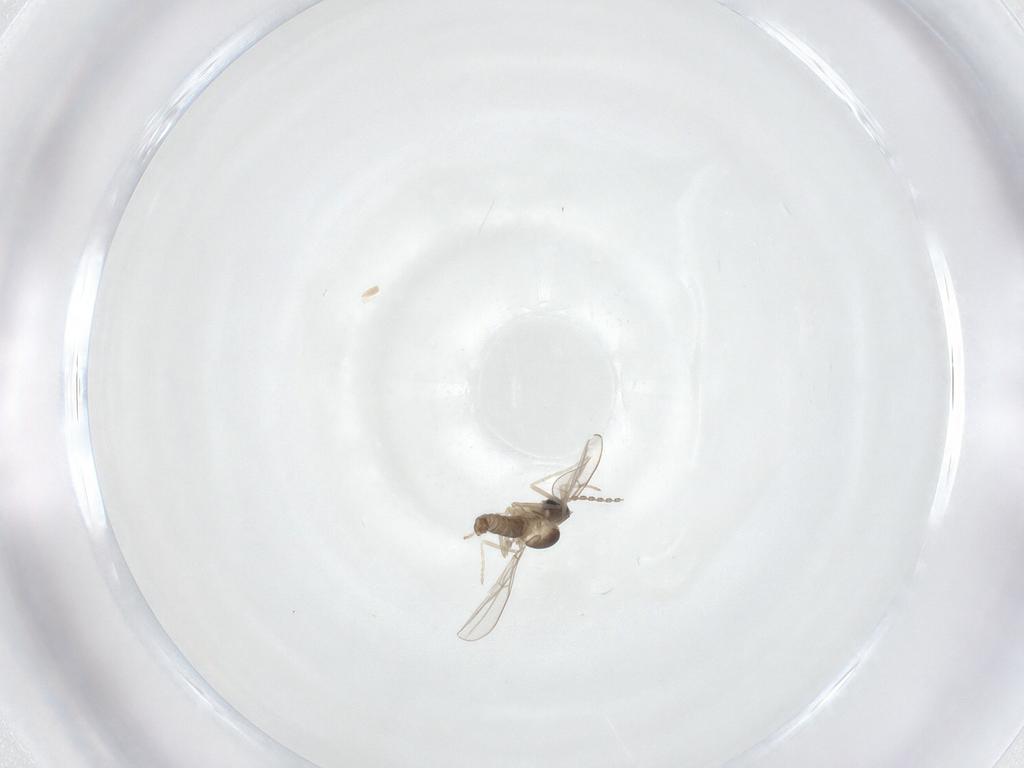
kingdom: Animalia
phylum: Arthropoda
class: Insecta
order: Diptera
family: Cecidomyiidae
